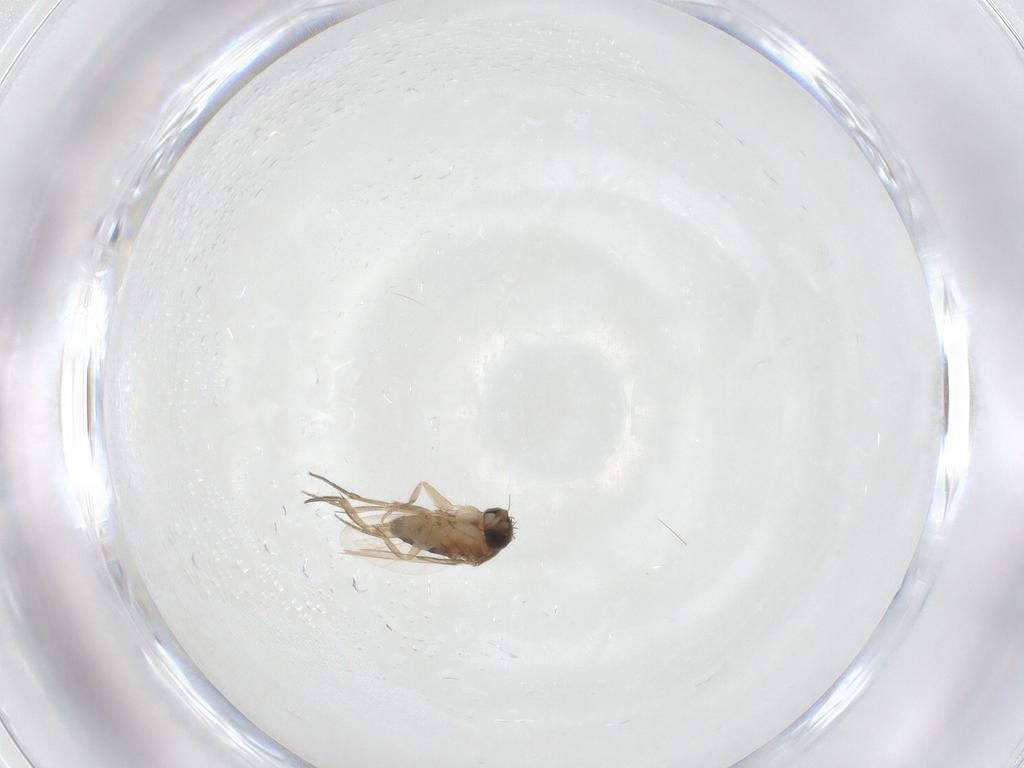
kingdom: Animalia
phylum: Arthropoda
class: Insecta
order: Diptera
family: Phoridae
